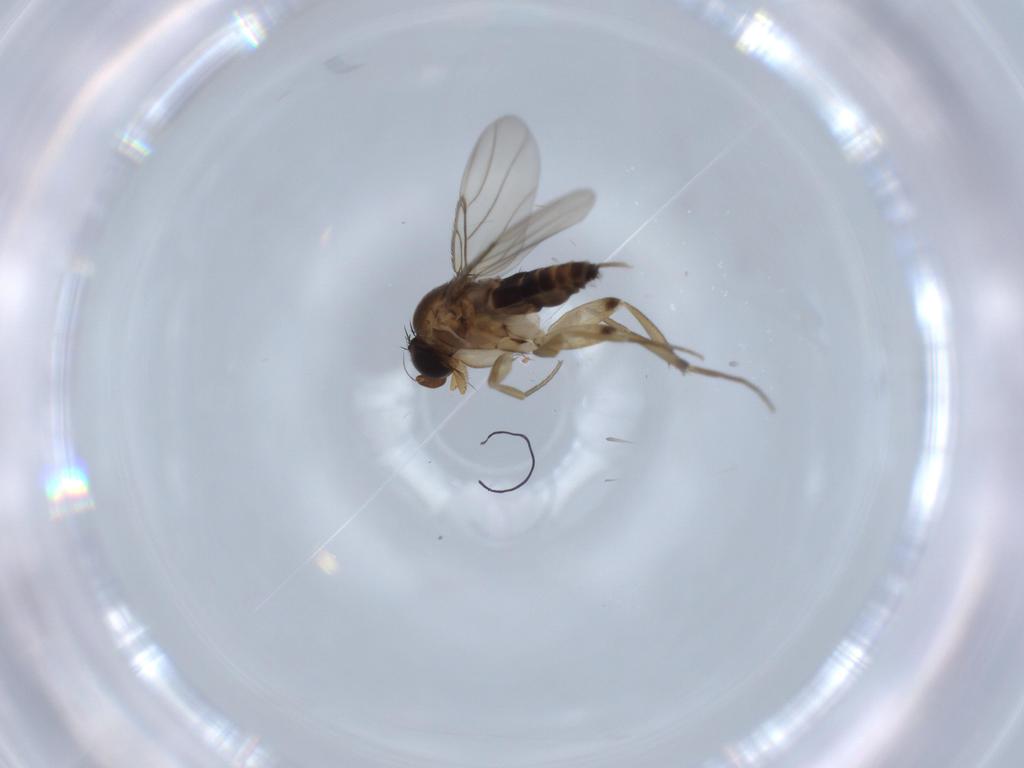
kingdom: Animalia
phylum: Arthropoda
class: Insecta
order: Diptera
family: Phoridae
